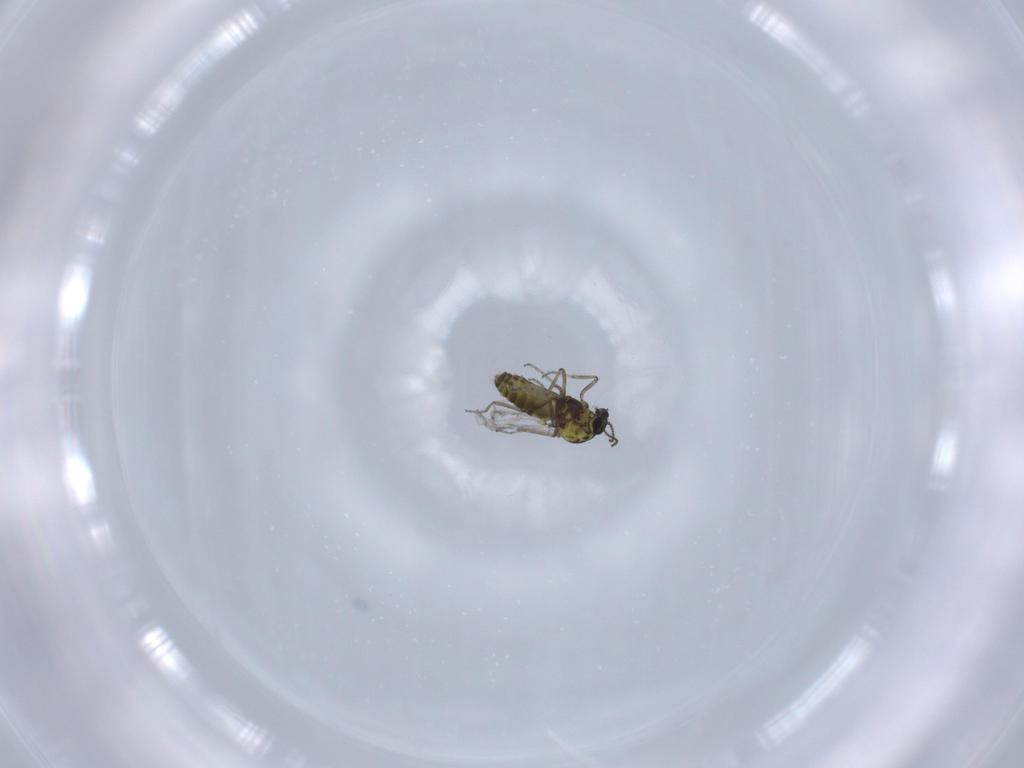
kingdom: Animalia
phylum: Arthropoda
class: Insecta
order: Diptera
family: Ceratopogonidae
